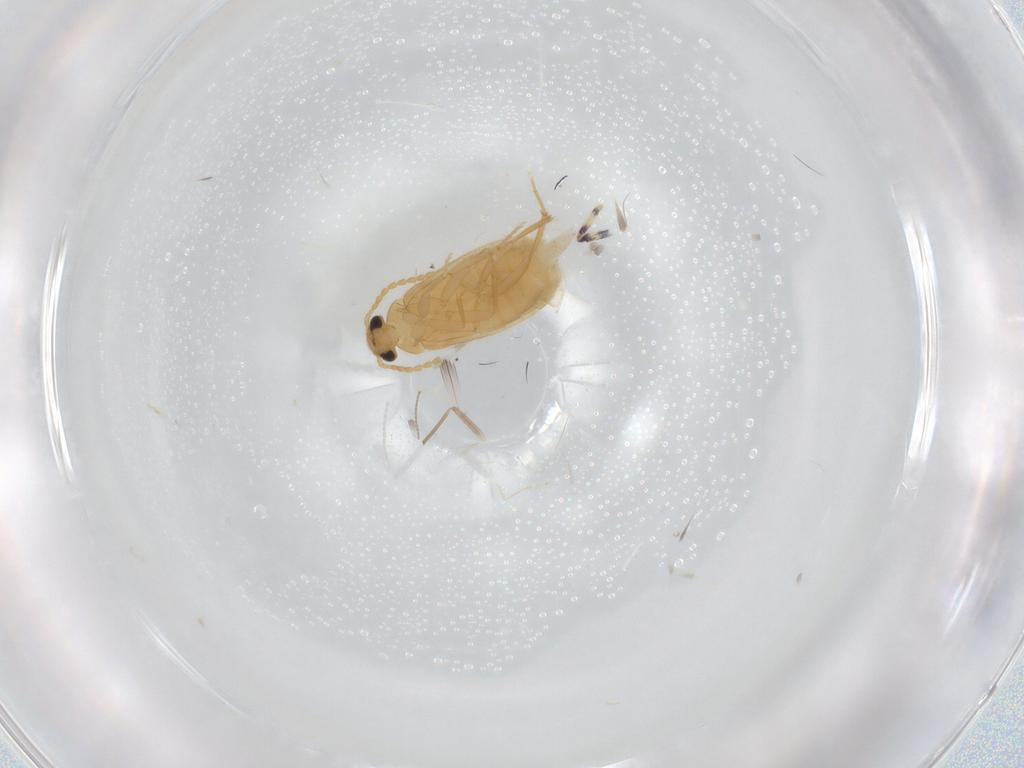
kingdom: Animalia
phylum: Arthropoda
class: Insecta
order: Coleoptera
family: Scraptiidae
